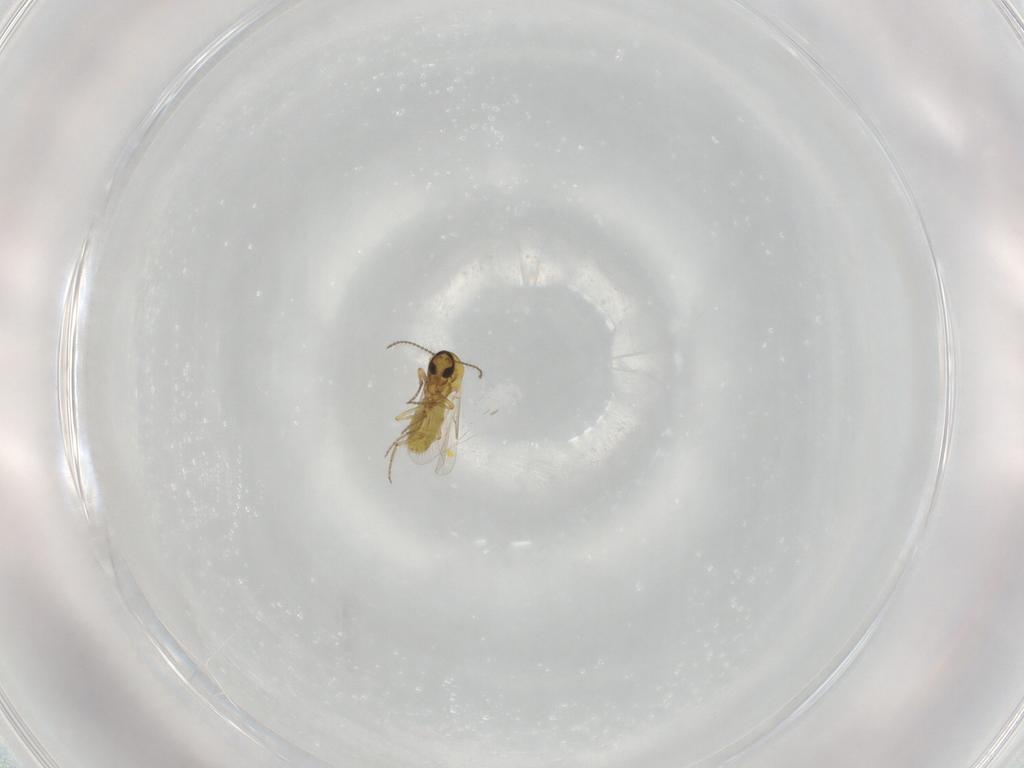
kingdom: Animalia
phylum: Arthropoda
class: Insecta
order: Diptera
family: Ceratopogonidae
